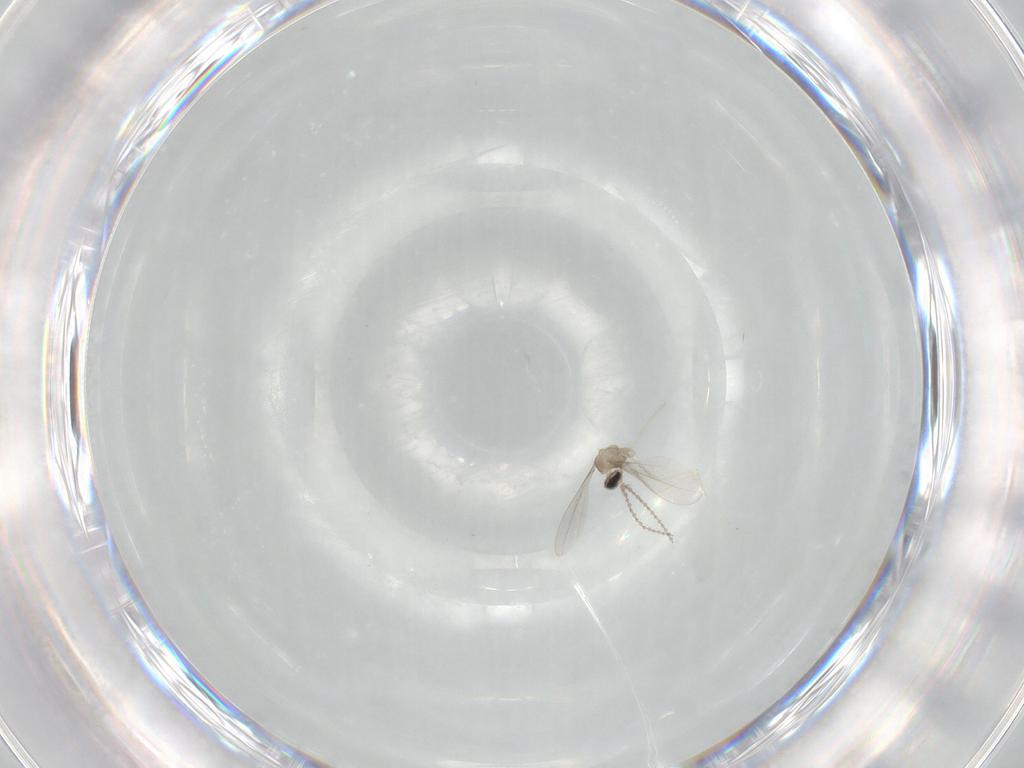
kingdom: Animalia
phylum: Arthropoda
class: Insecta
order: Diptera
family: Cecidomyiidae
